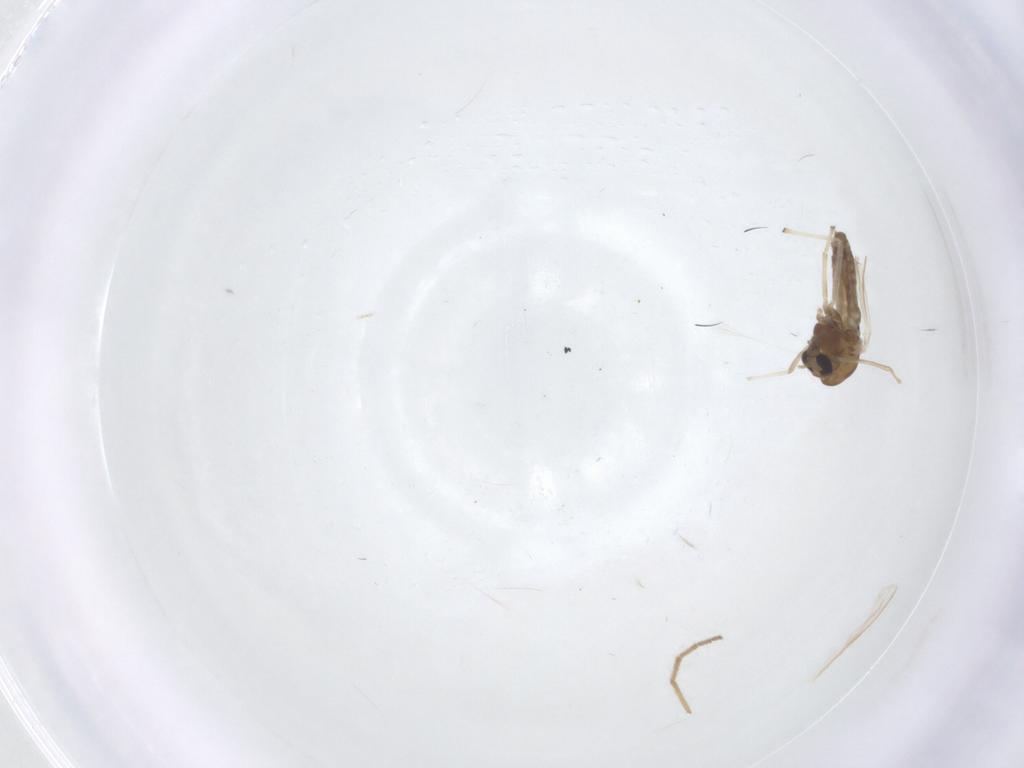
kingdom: Animalia
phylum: Arthropoda
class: Insecta
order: Diptera
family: Chironomidae
